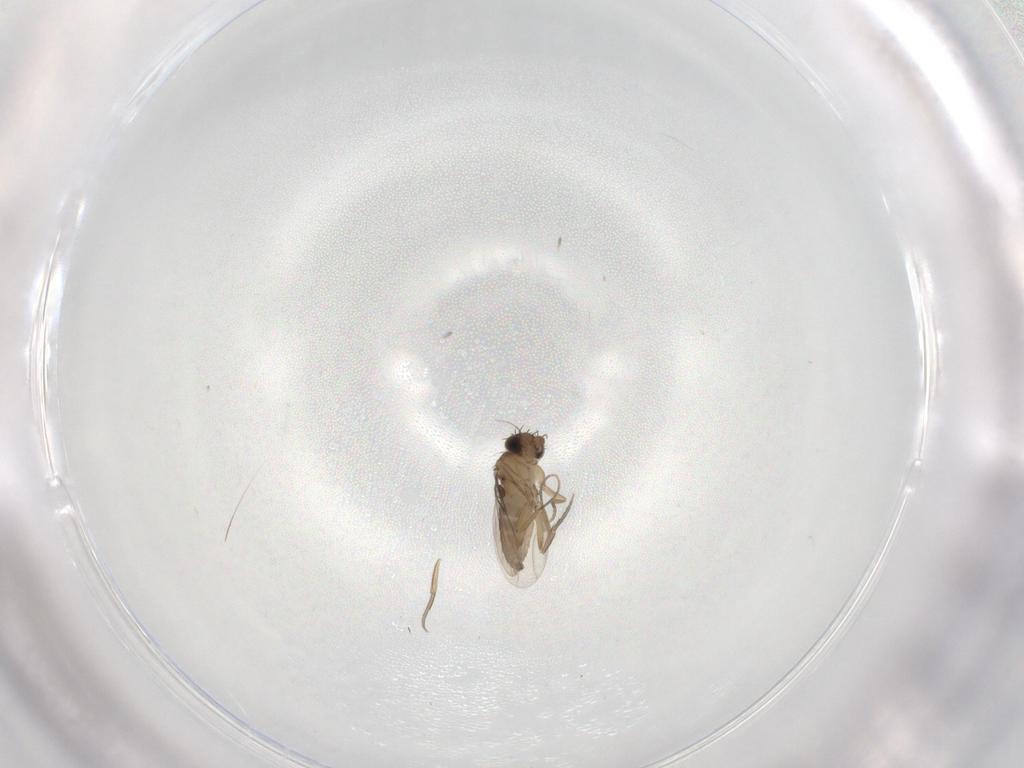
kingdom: Animalia
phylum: Arthropoda
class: Insecta
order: Diptera
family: Phoridae
